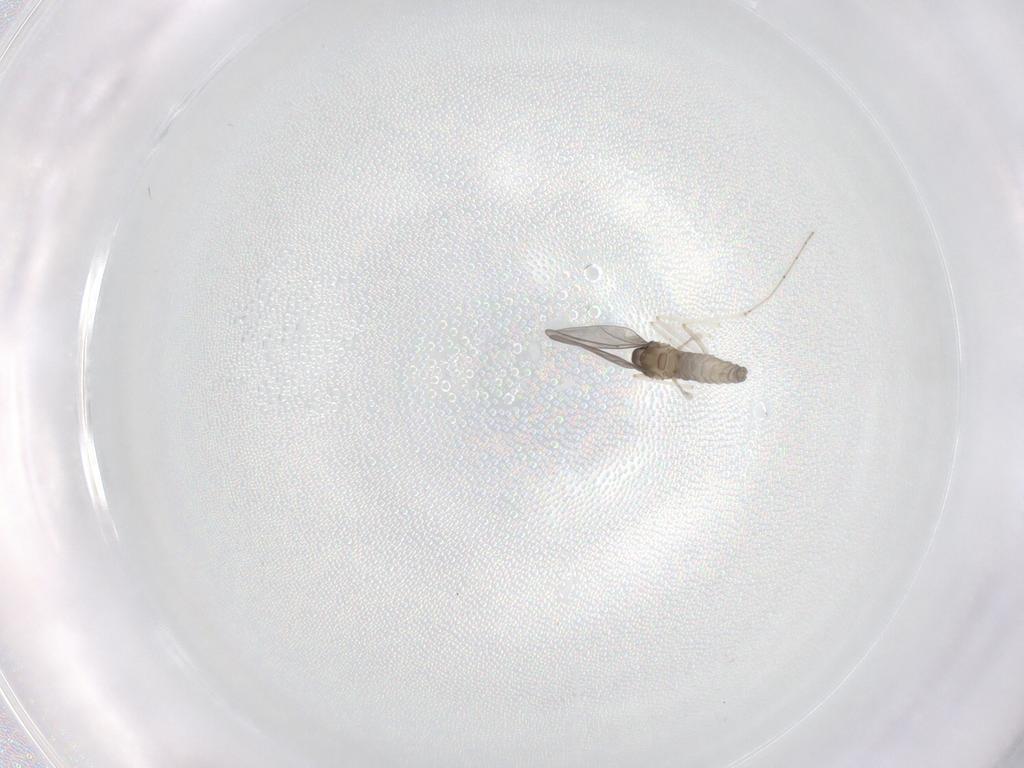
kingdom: Animalia
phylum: Arthropoda
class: Insecta
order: Diptera
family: Cecidomyiidae
